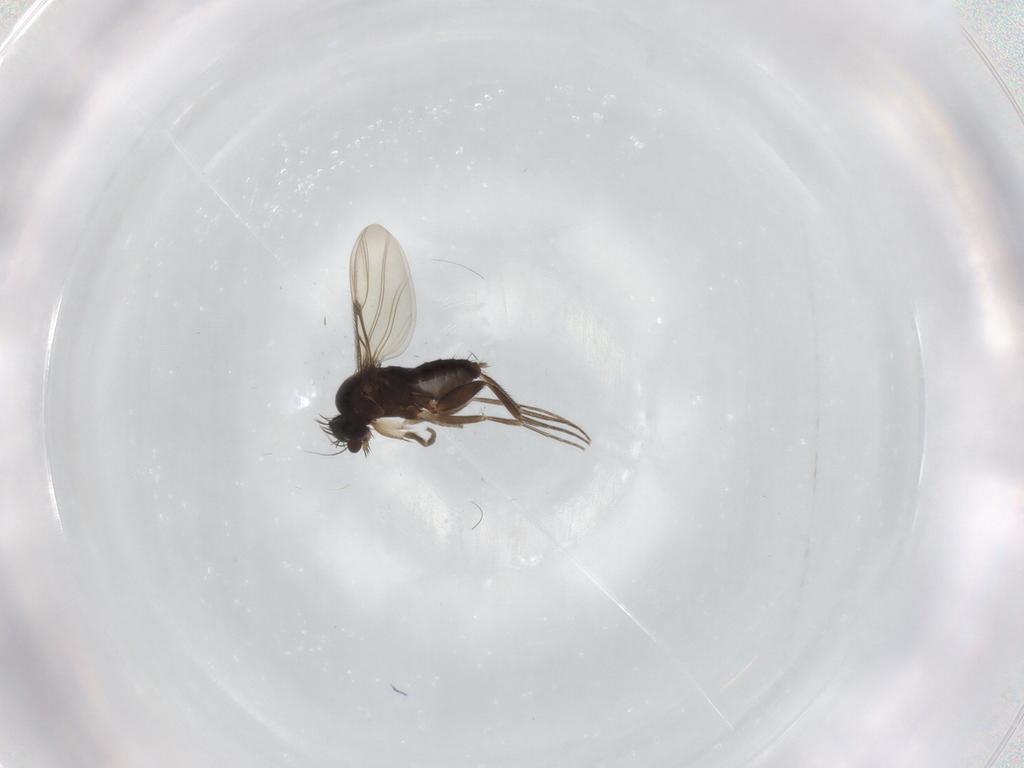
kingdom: Animalia
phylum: Arthropoda
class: Insecta
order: Diptera
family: Phoridae
